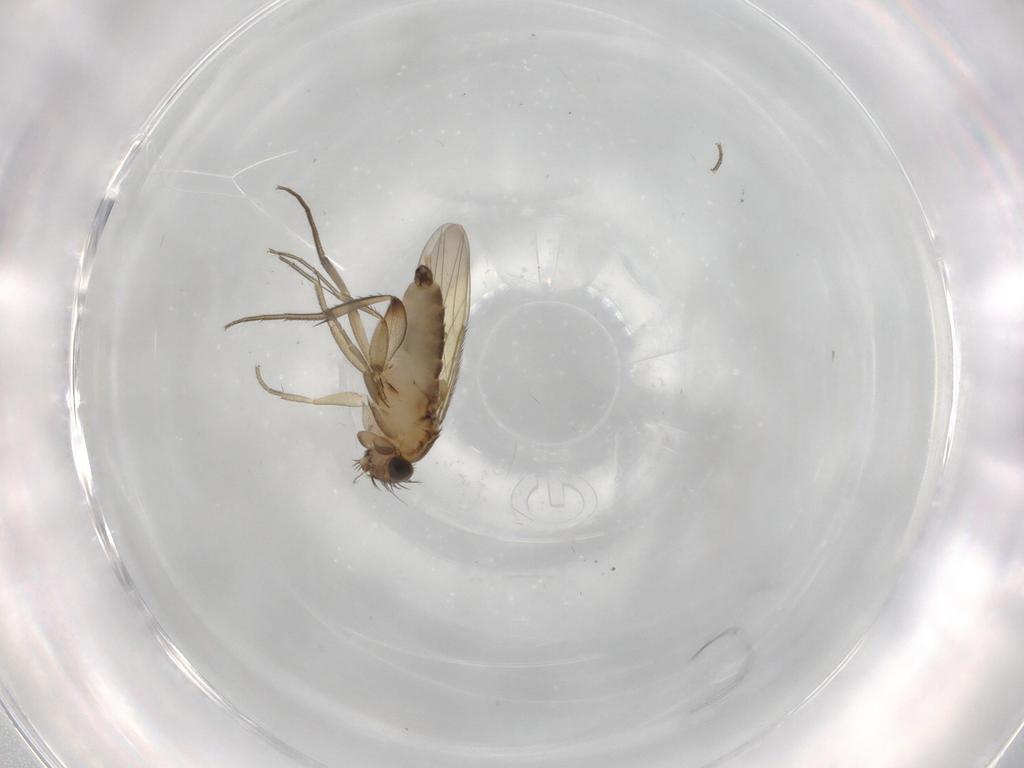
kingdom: Animalia
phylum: Arthropoda
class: Insecta
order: Diptera
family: Phoridae
